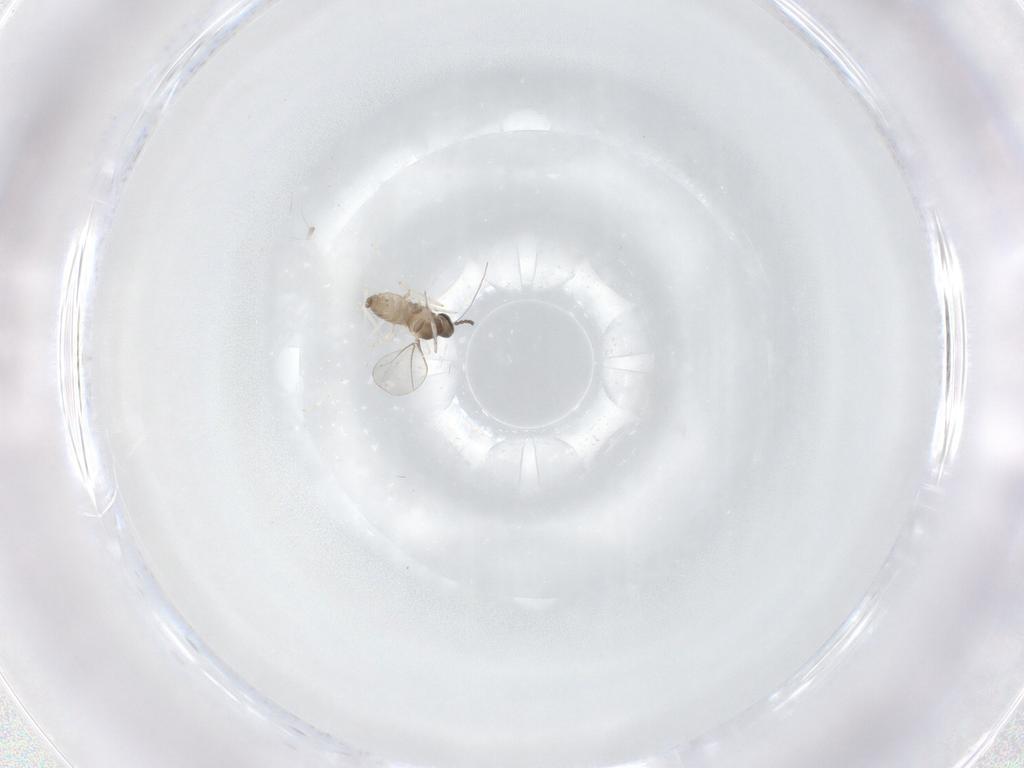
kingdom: Animalia
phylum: Arthropoda
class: Insecta
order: Diptera
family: Cecidomyiidae
